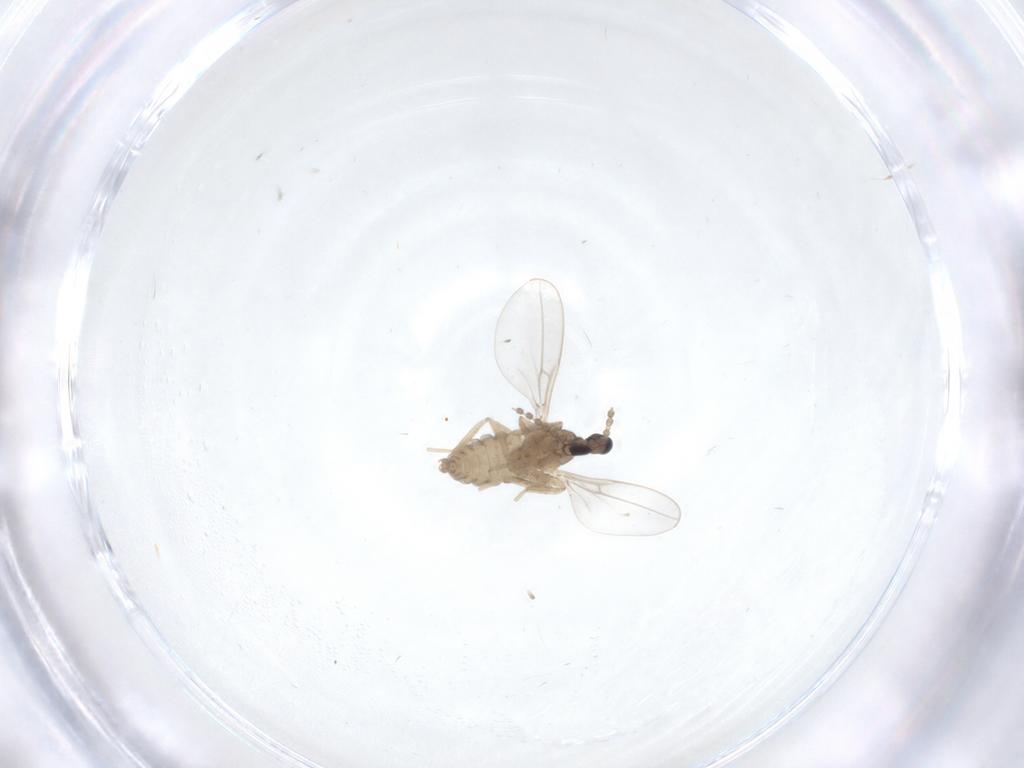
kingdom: Animalia
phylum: Arthropoda
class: Insecta
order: Diptera
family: Cecidomyiidae
